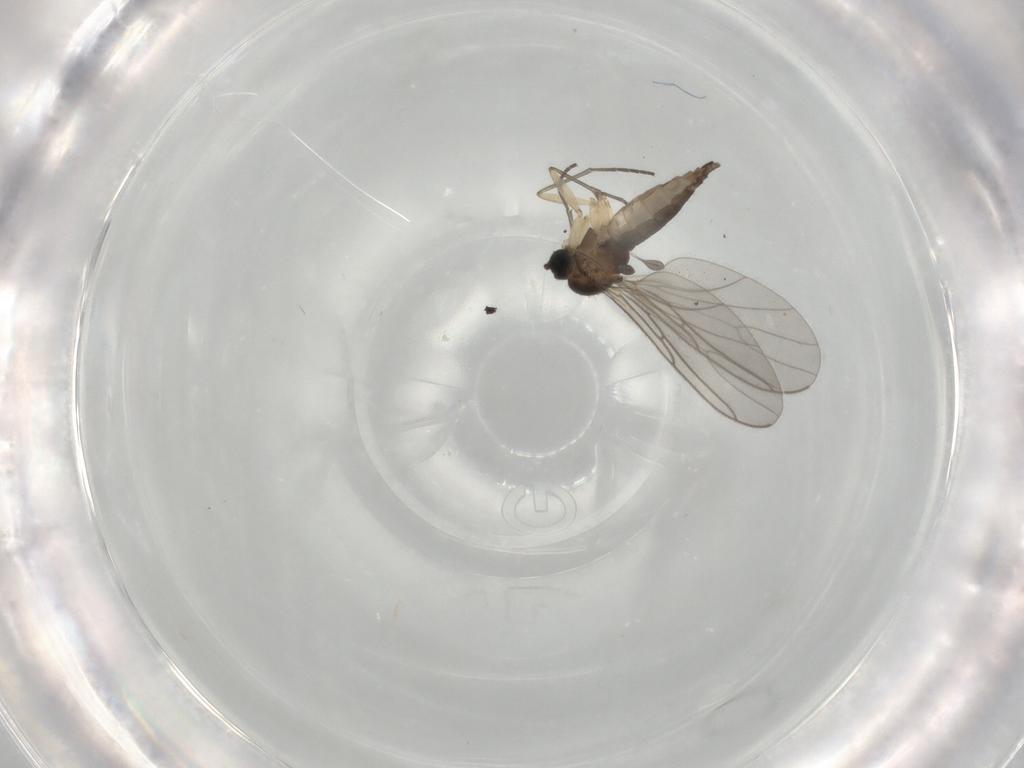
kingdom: Animalia
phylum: Arthropoda
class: Insecta
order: Diptera
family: Sciaridae
